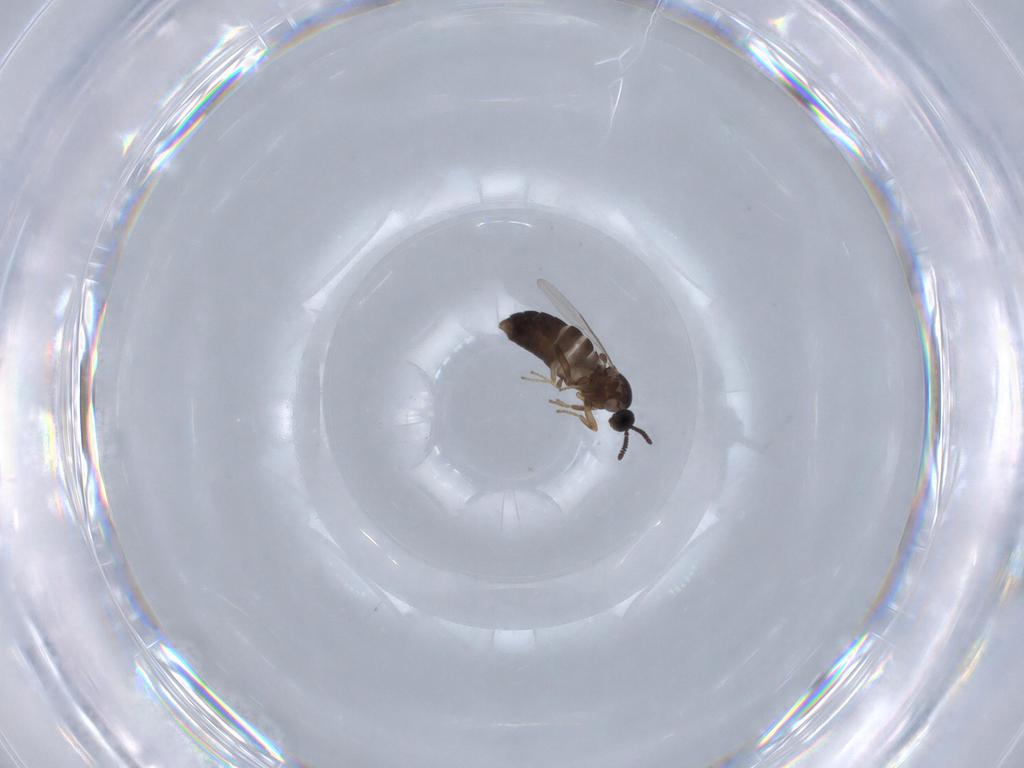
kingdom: Animalia
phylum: Arthropoda
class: Insecta
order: Diptera
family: Scatopsidae
